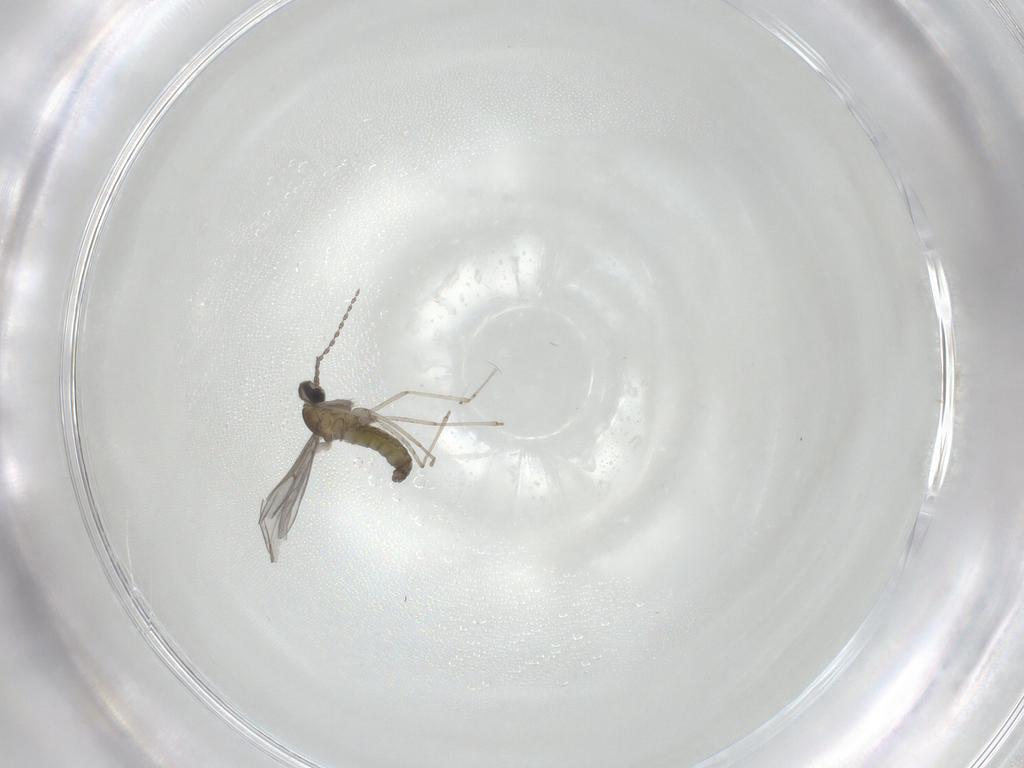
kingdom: Animalia
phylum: Arthropoda
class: Insecta
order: Diptera
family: Cecidomyiidae
